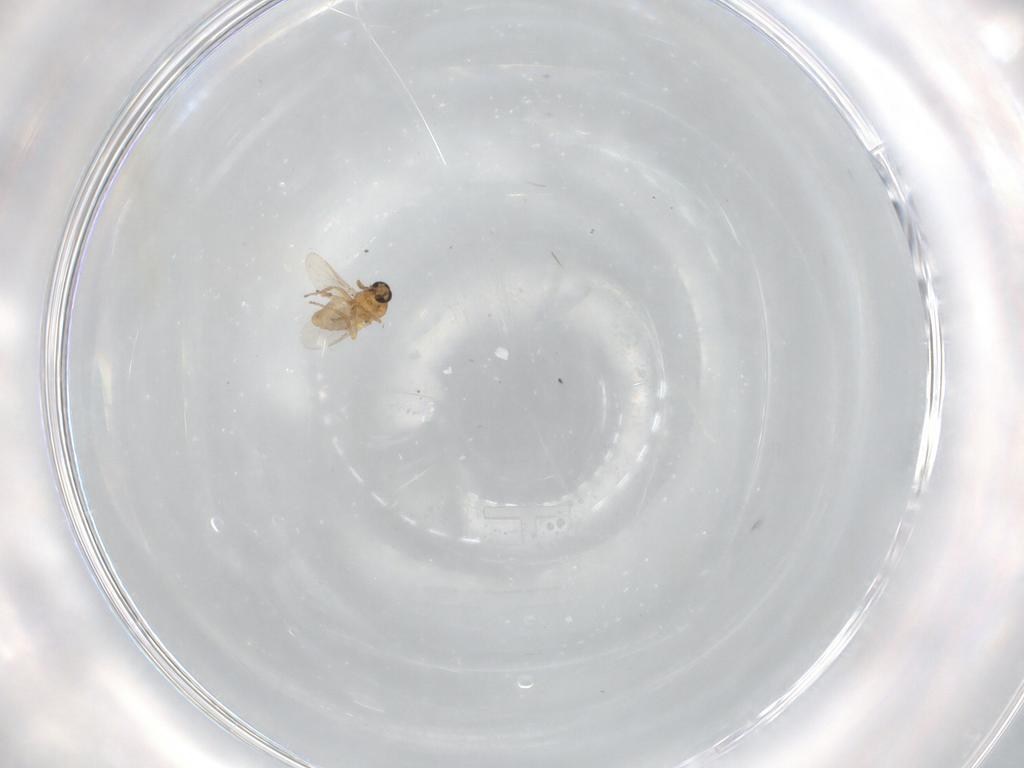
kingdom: Animalia
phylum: Arthropoda
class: Insecta
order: Diptera
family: Ceratopogonidae
